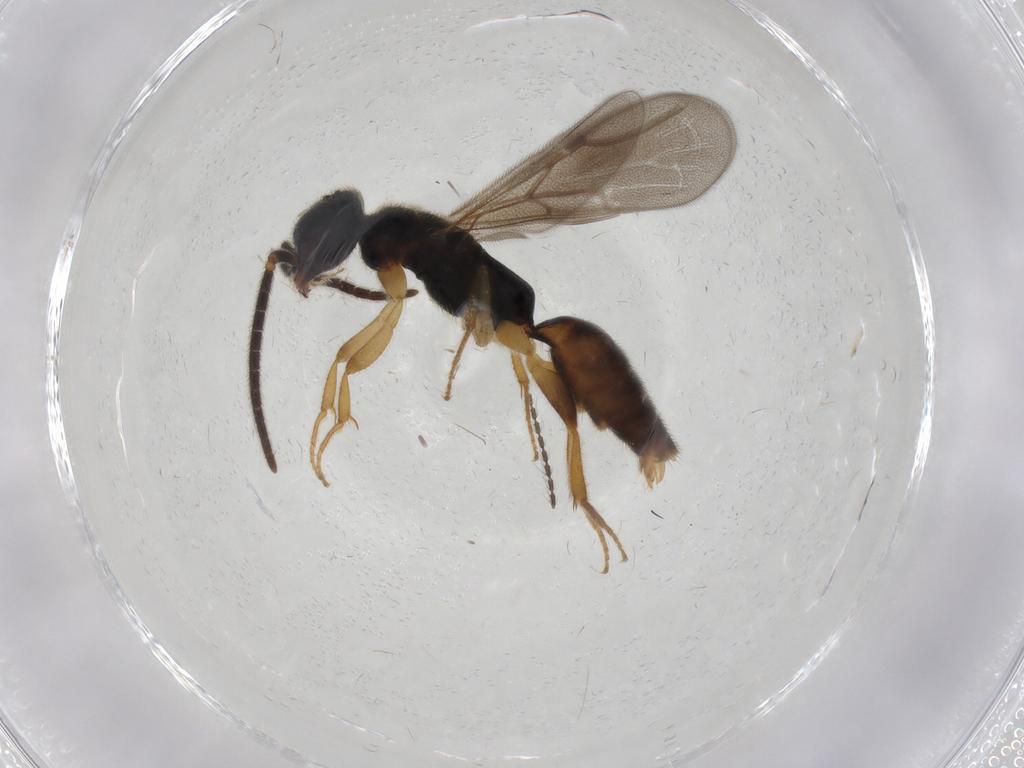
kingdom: Animalia
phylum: Arthropoda
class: Insecta
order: Hymenoptera
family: Bethylidae
